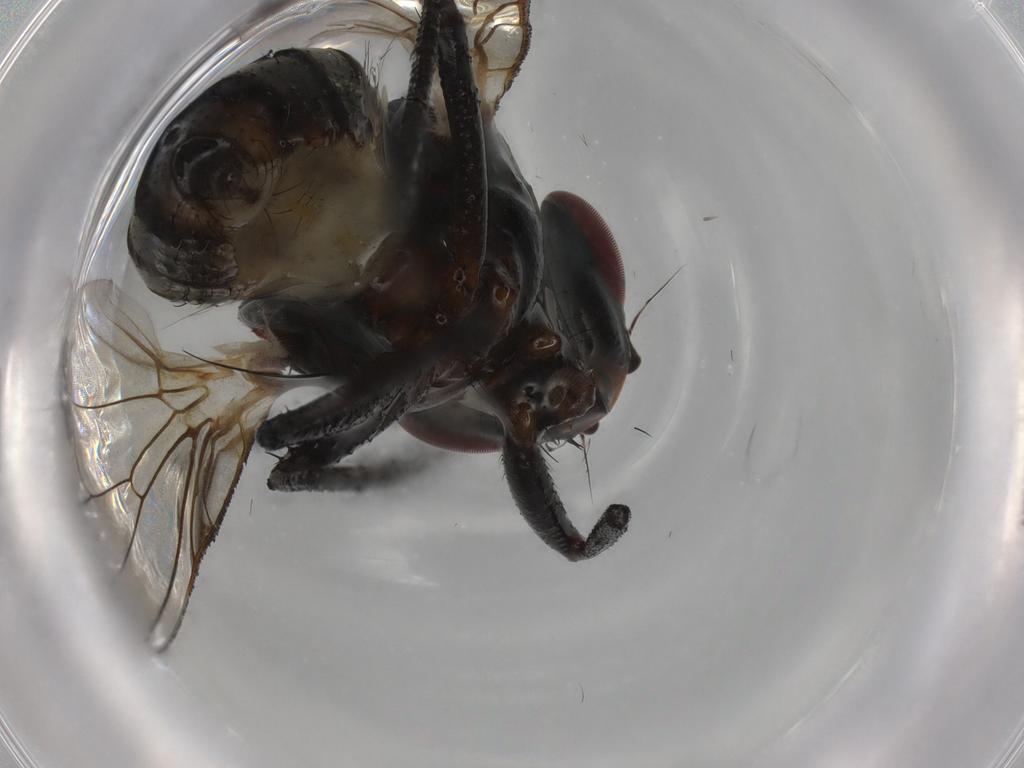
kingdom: Animalia
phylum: Arthropoda
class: Insecta
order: Diptera
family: Anthomyiidae
